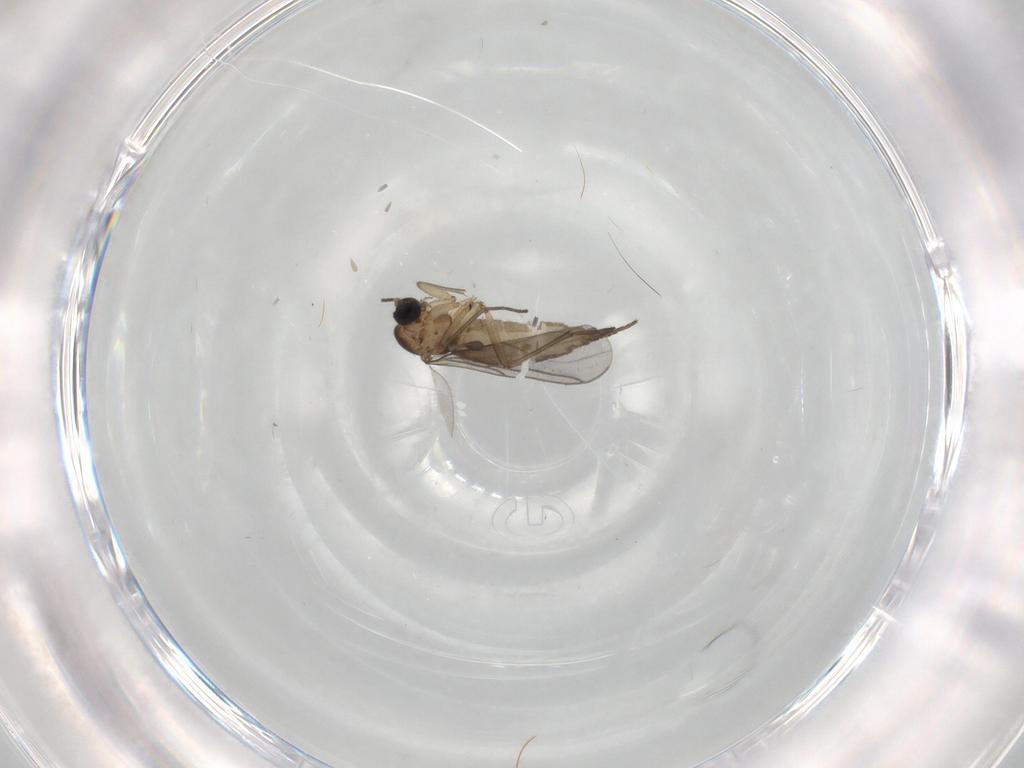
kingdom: Animalia
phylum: Arthropoda
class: Insecta
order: Diptera
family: Sciaridae
